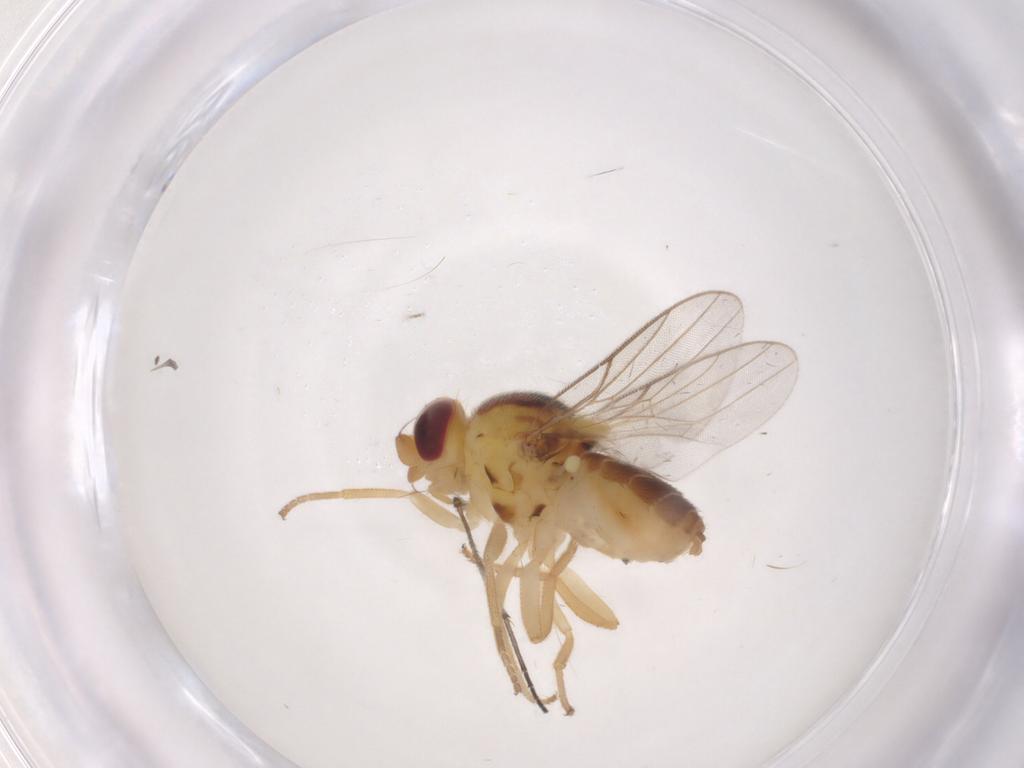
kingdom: Animalia
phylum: Arthropoda
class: Insecta
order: Diptera
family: Chloropidae
